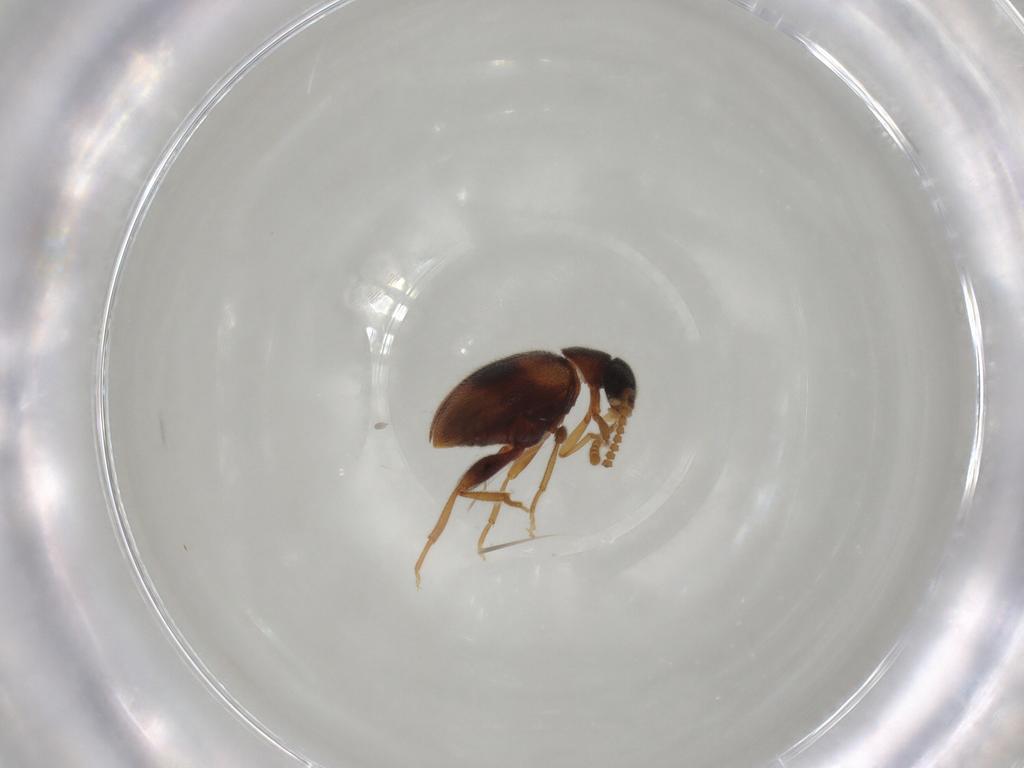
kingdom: Animalia
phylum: Arthropoda
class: Insecta
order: Coleoptera
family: Aderidae
